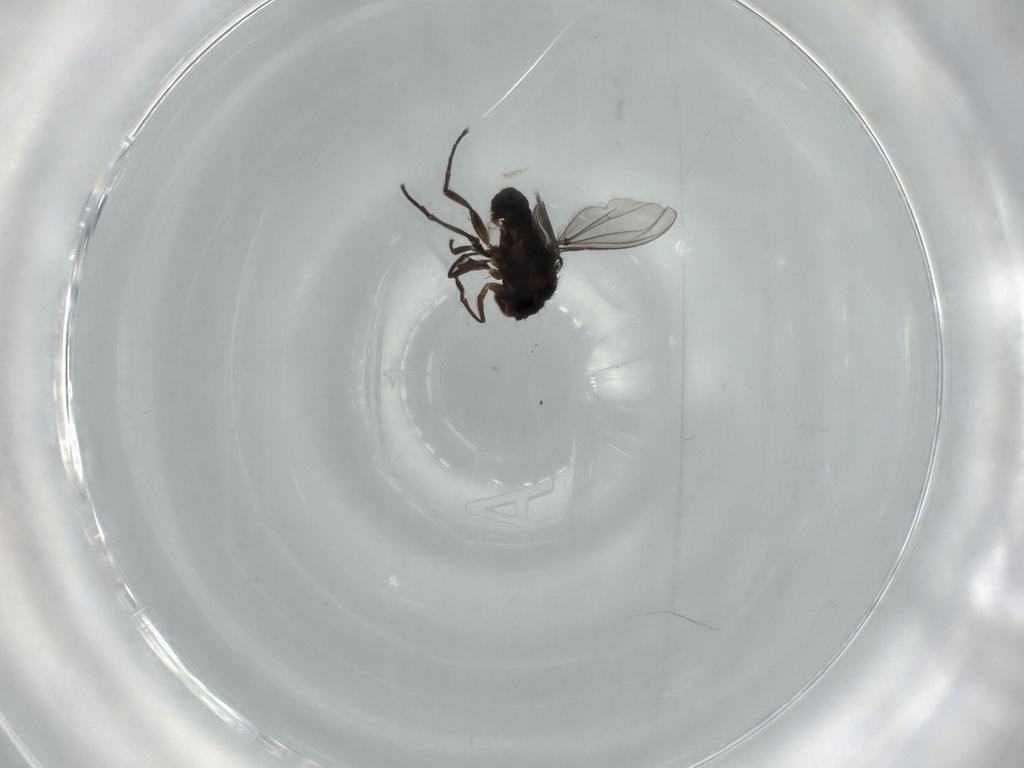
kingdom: Animalia
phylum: Arthropoda
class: Insecta
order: Diptera
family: Dolichopodidae
